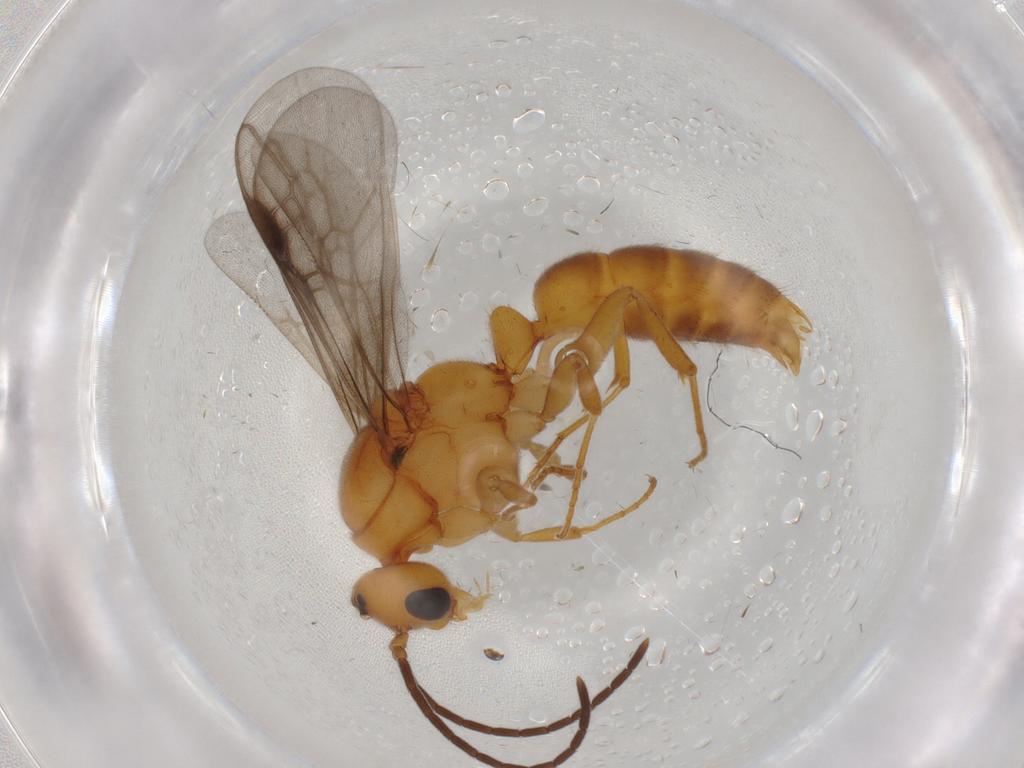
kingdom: Animalia
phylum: Arthropoda
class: Insecta
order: Hymenoptera
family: Formicidae
